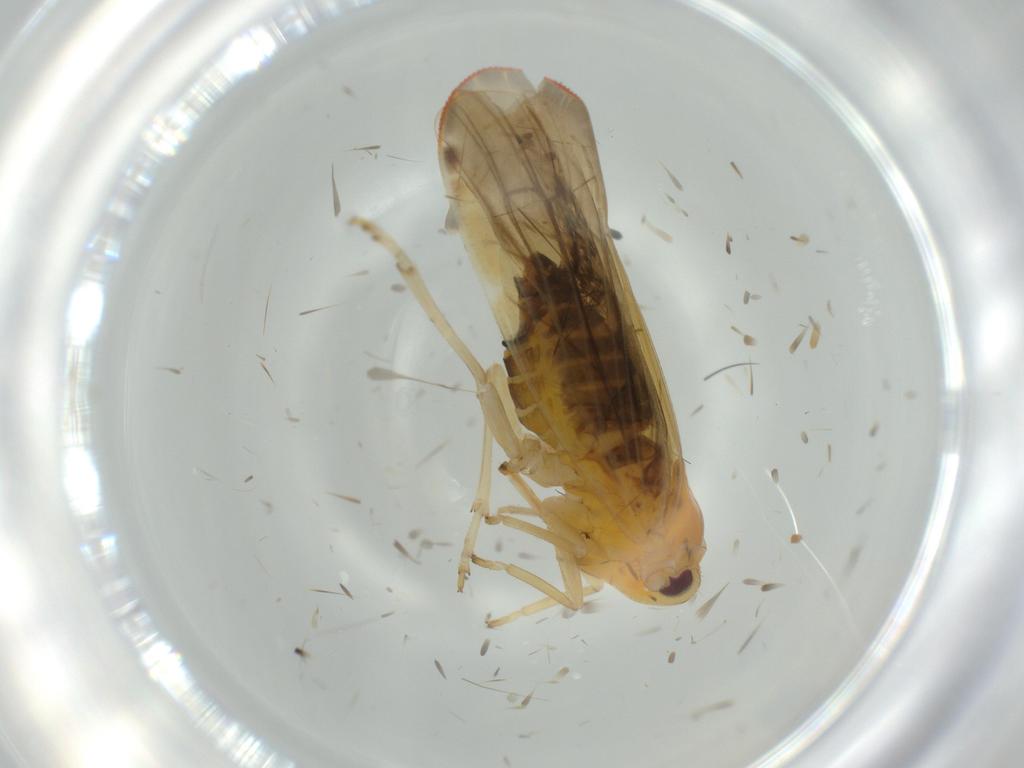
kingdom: Animalia
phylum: Arthropoda
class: Insecta
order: Hemiptera
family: Derbidae
